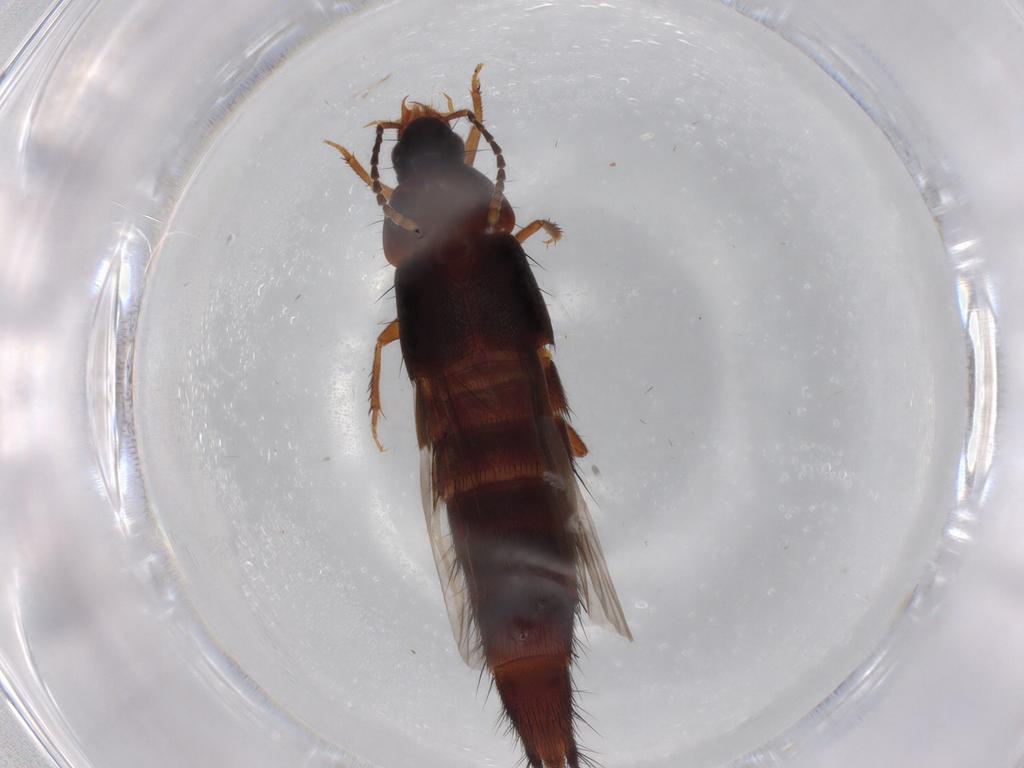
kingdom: Animalia
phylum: Arthropoda
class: Insecta
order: Coleoptera
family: Staphylinidae
